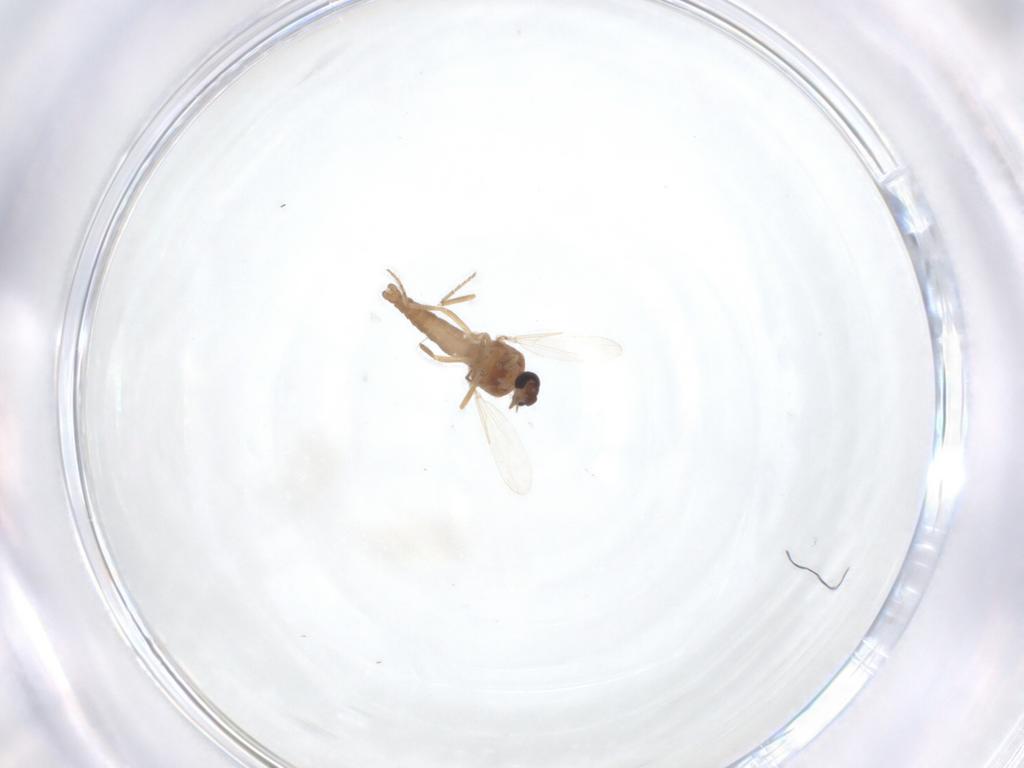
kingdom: Animalia
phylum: Arthropoda
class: Insecta
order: Diptera
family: Ceratopogonidae
